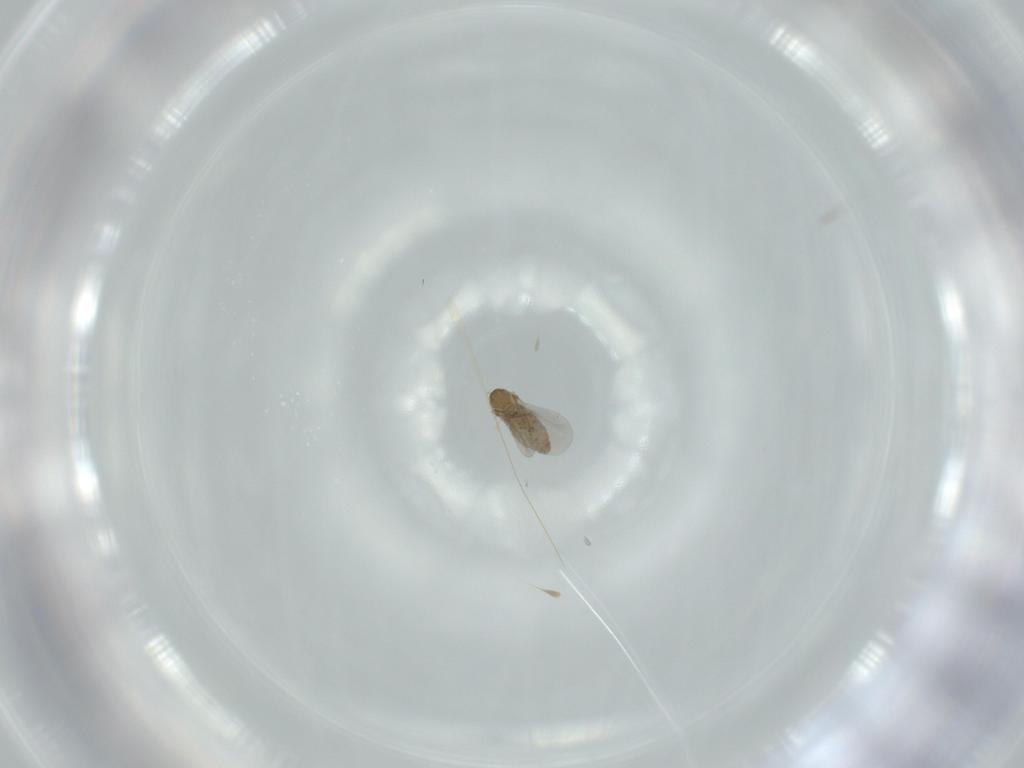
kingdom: Animalia
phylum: Arthropoda
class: Insecta
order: Diptera
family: Cecidomyiidae
